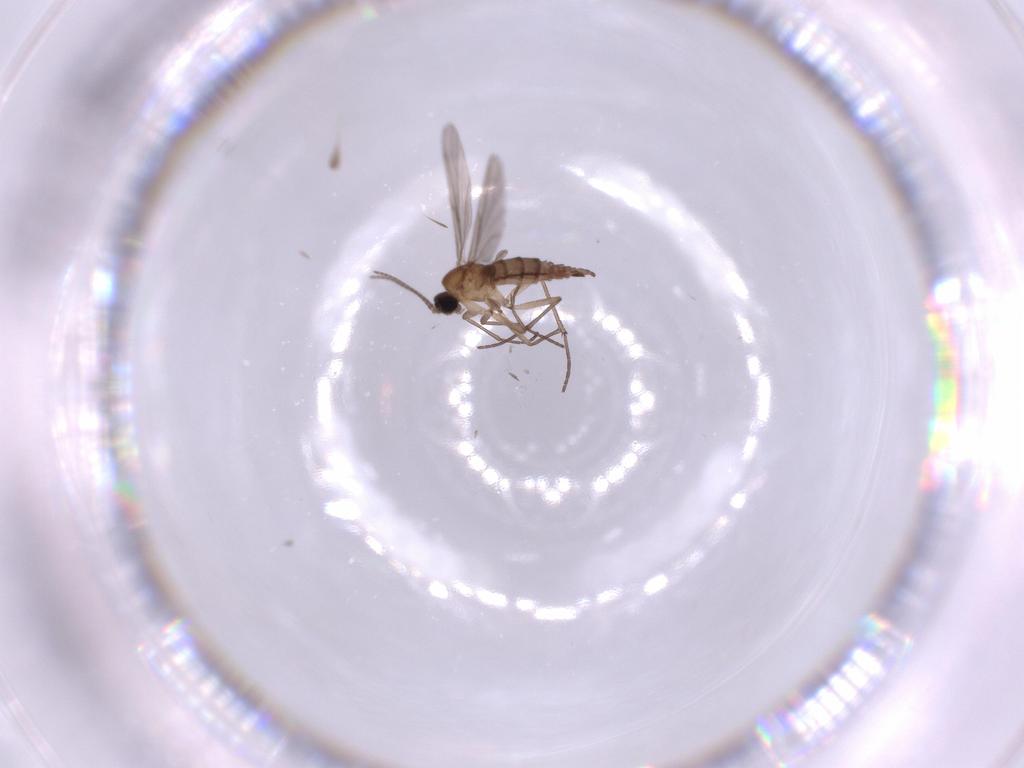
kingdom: Animalia
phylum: Arthropoda
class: Insecta
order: Diptera
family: Sciaridae
